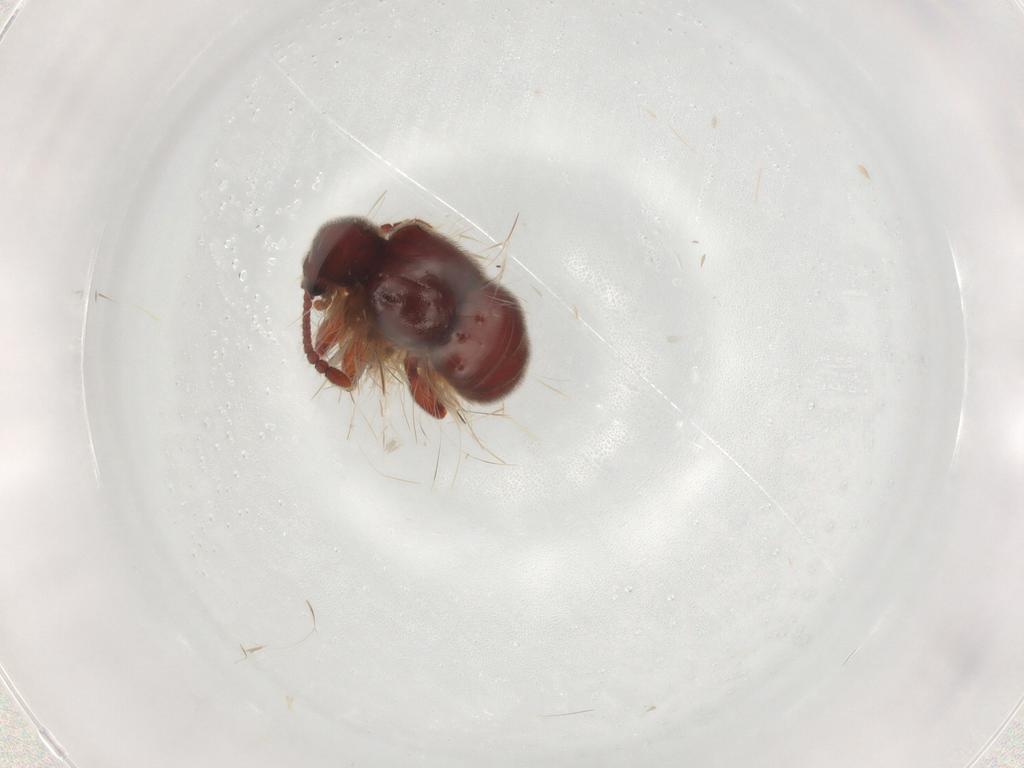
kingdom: Animalia
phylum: Arthropoda
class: Insecta
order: Coleoptera
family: Staphylinidae
